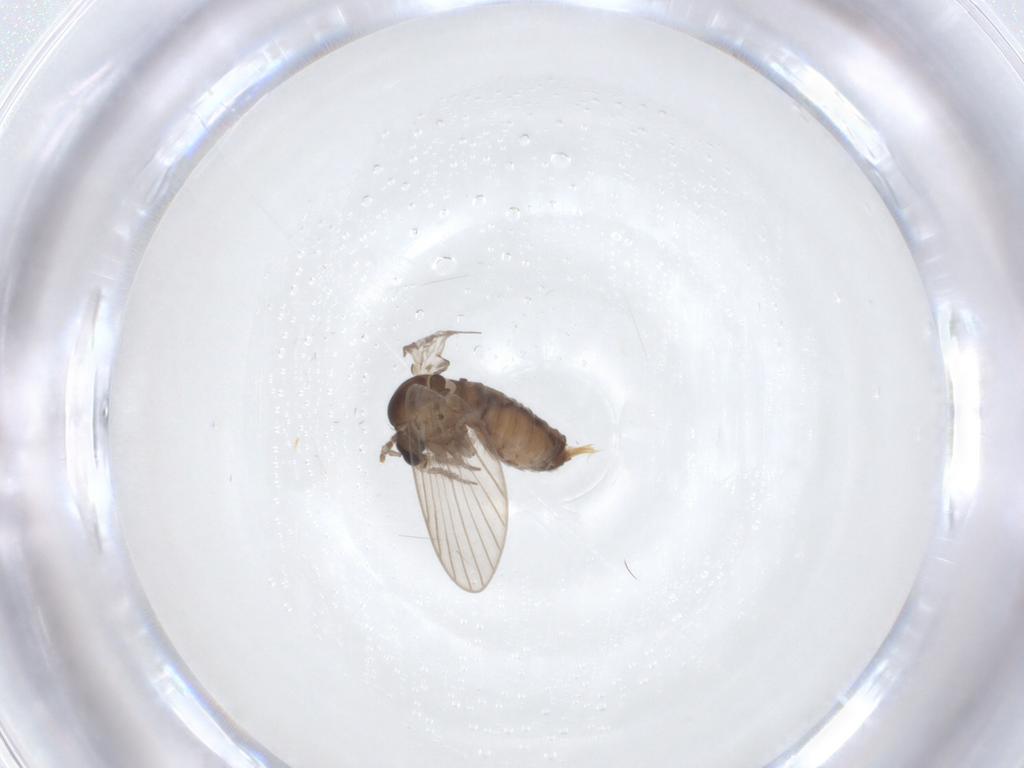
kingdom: Animalia
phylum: Arthropoda
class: Insecta
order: Diptera
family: Psychodidae
